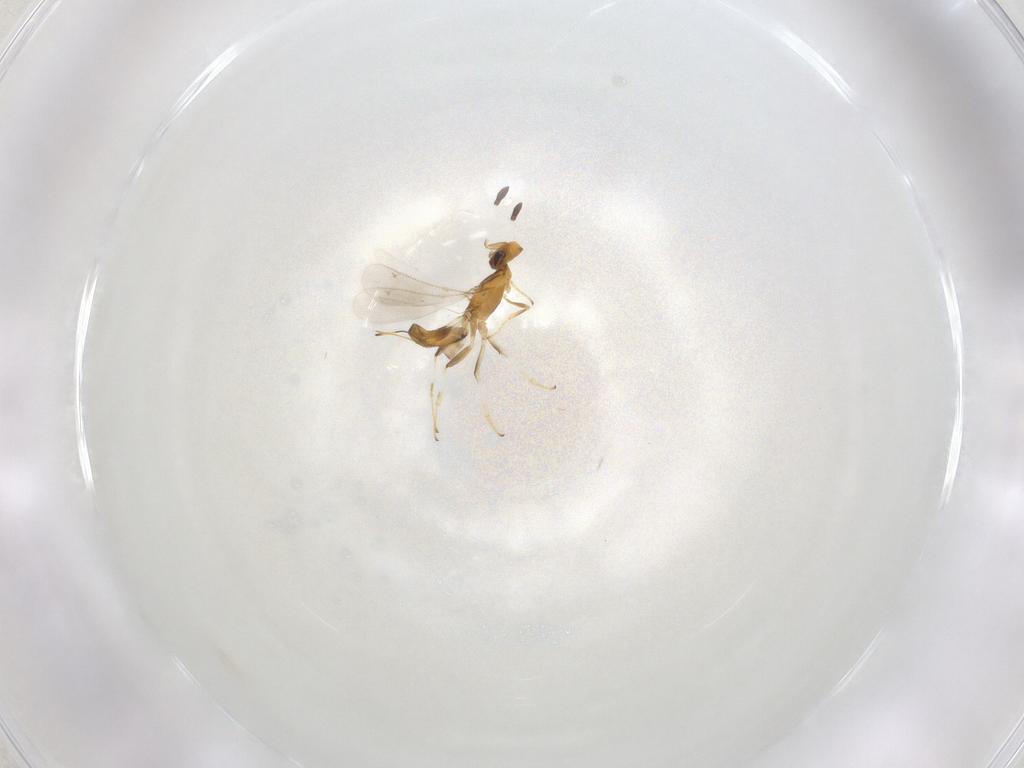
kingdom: Animalia
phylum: Arthropoda
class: Insecta
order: Hymenoptera
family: Eupelmidae
